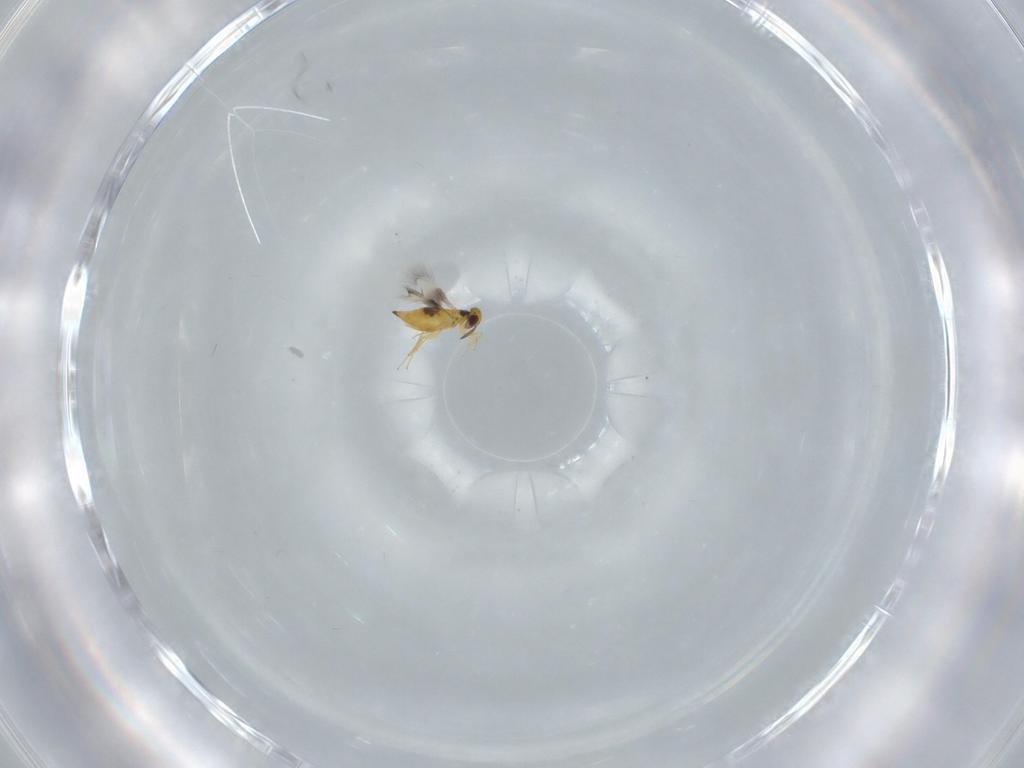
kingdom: Animalia
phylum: Arthropoda
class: Insecta
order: Hymenoptera
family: Signiphoridae
